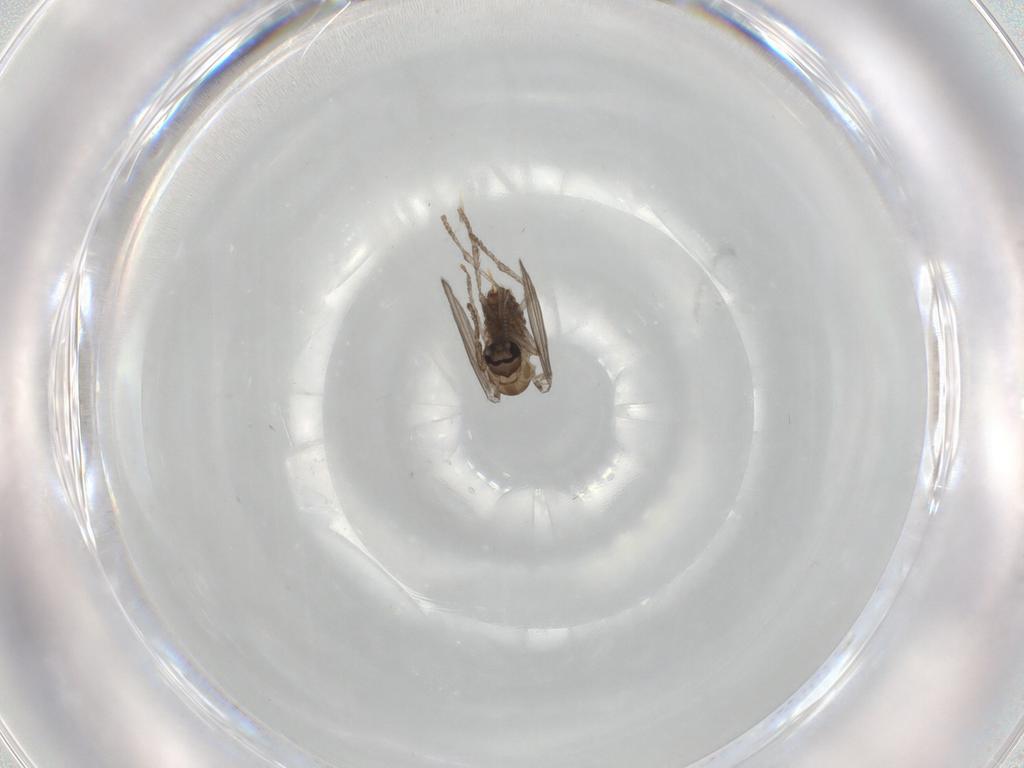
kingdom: Animalia
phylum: Arthropoda
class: Insecta
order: Diptera
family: Psychodidae
